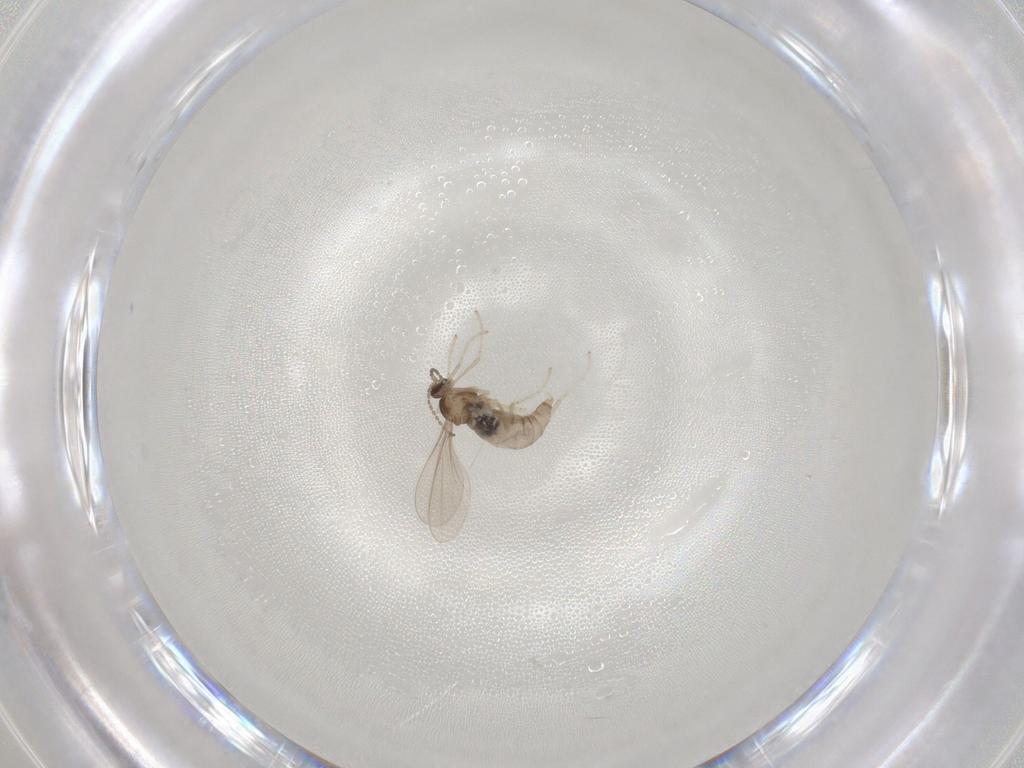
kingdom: Animalia
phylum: Arthropoda
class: Insecta
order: Diptera
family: Cecidomyiidae
